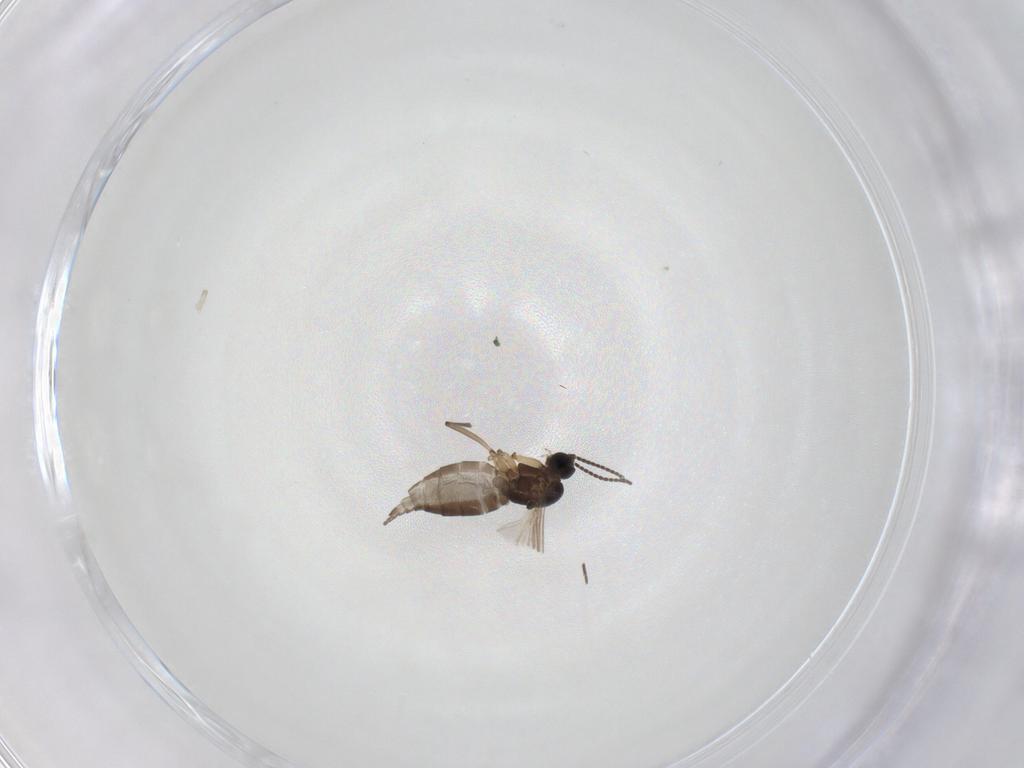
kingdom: Animalia
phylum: Arthropoda
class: Insecta
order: Diptera
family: Sciaridae
